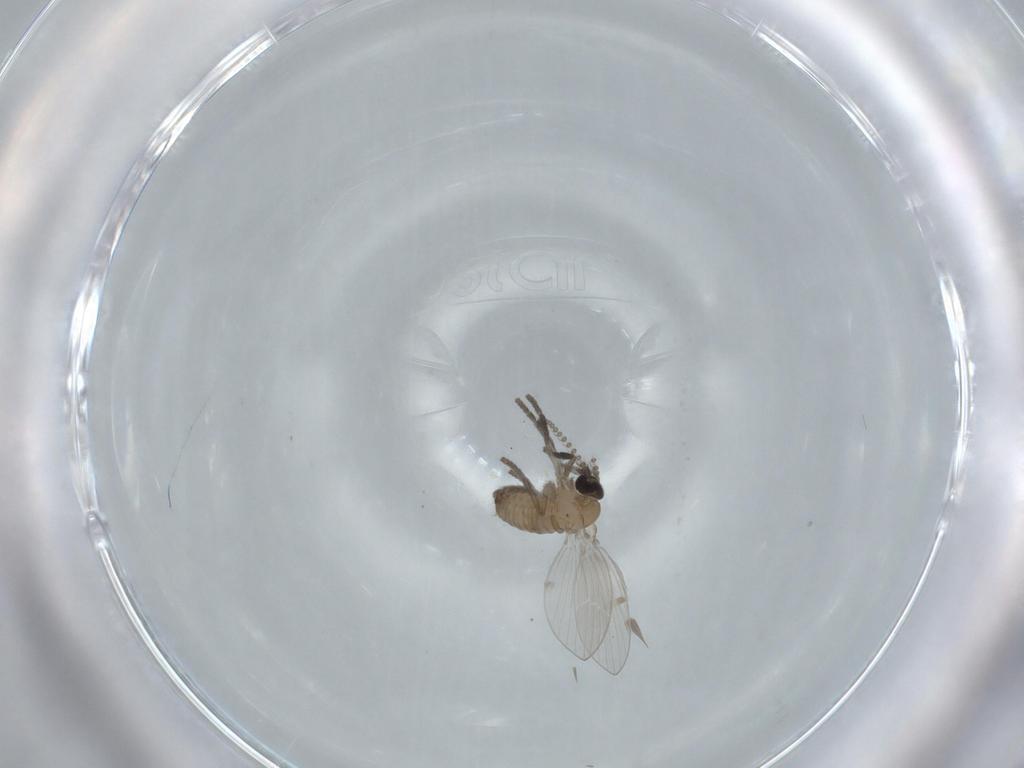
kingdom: Animalia
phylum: Arthropoda
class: Insecta
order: Diptera
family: Psychodidae
